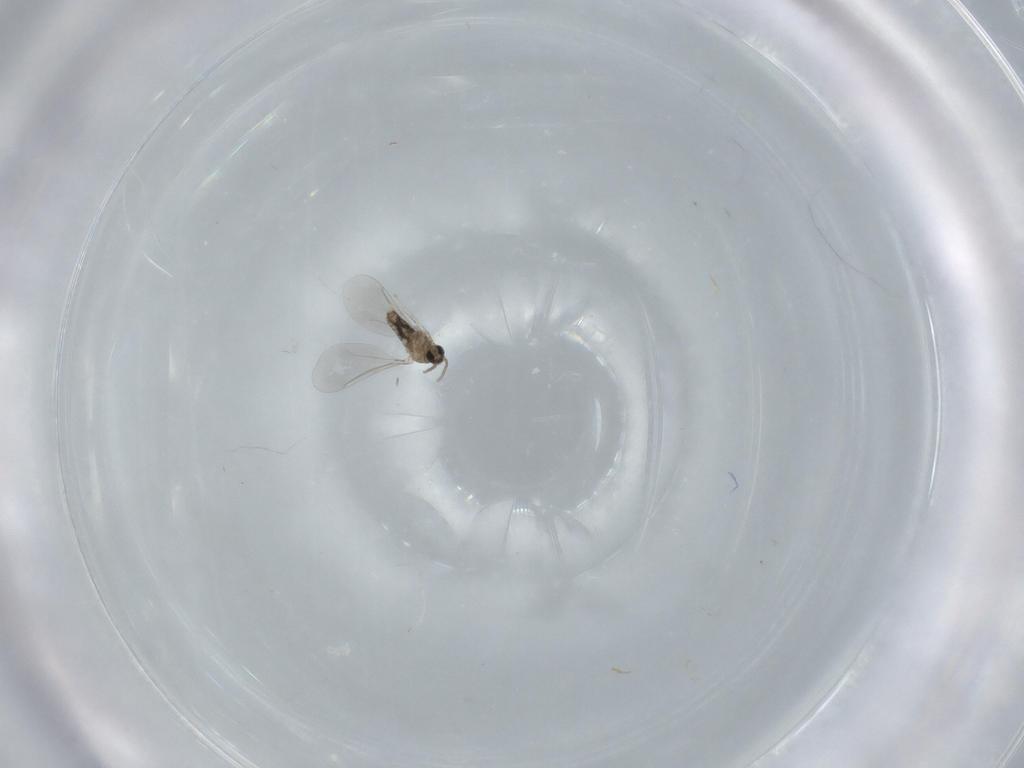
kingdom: Animalia
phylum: Arthropoda
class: Insecta
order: Diptera
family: Cecidomyiidae
